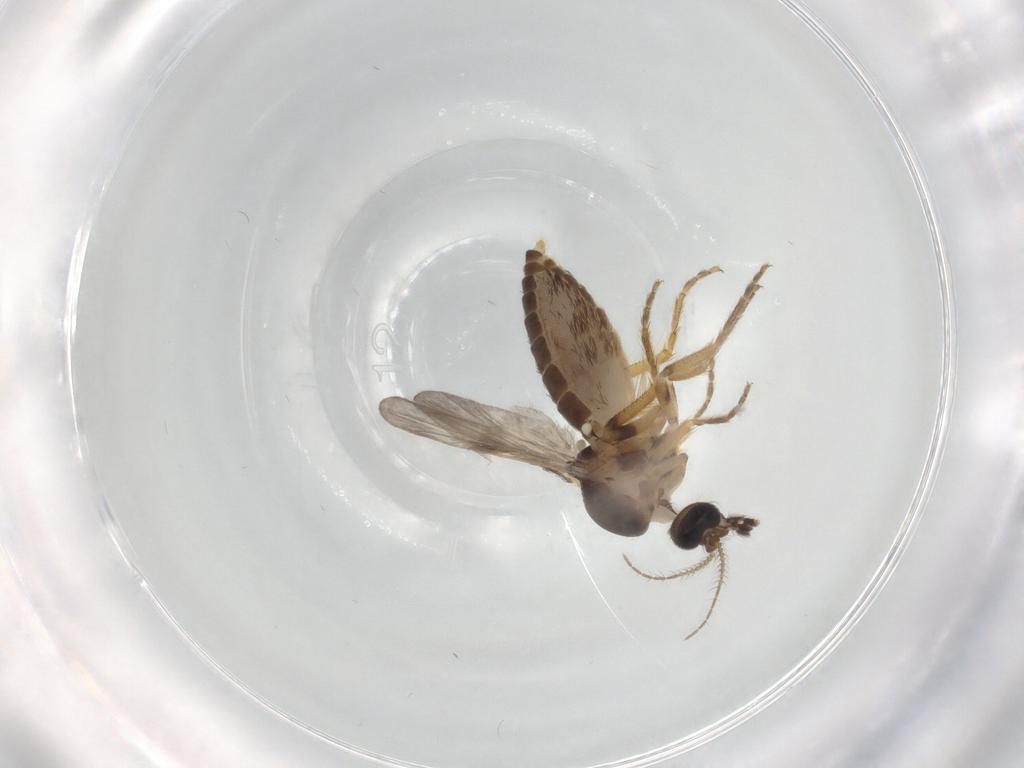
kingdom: Animalia
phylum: Arthropoda
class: Insecta
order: Diptera
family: Ceratopogonidae
